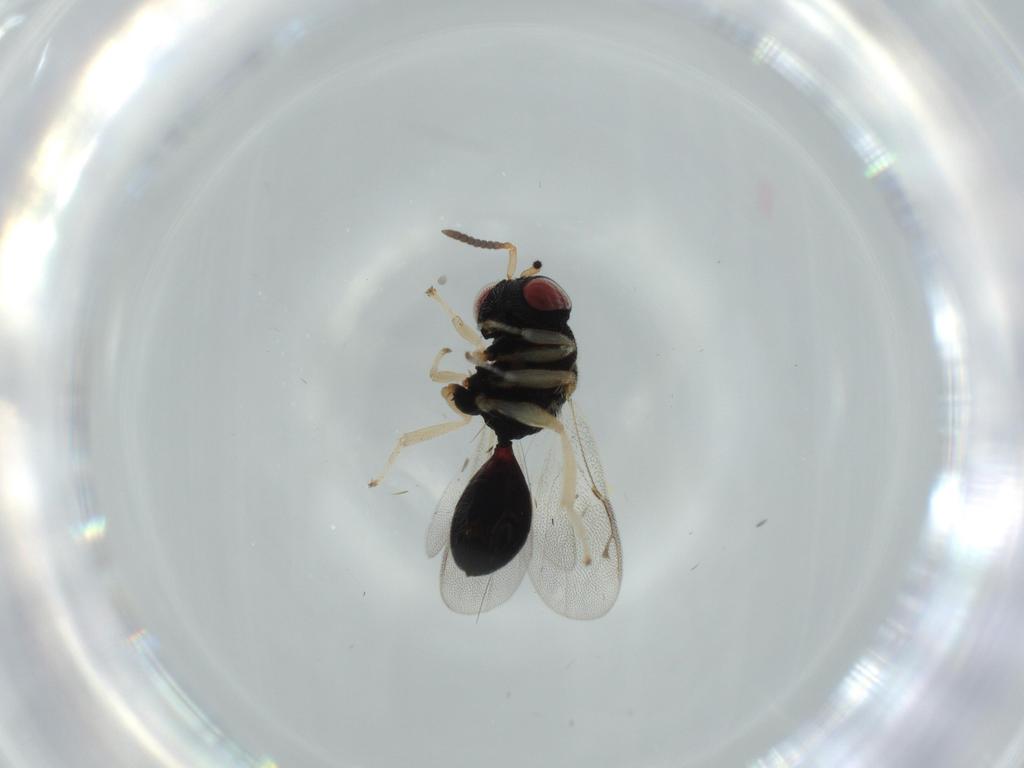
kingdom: Animalia
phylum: Arthropoda
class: Insecta
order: Hymenoptera
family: Eurytomidae
